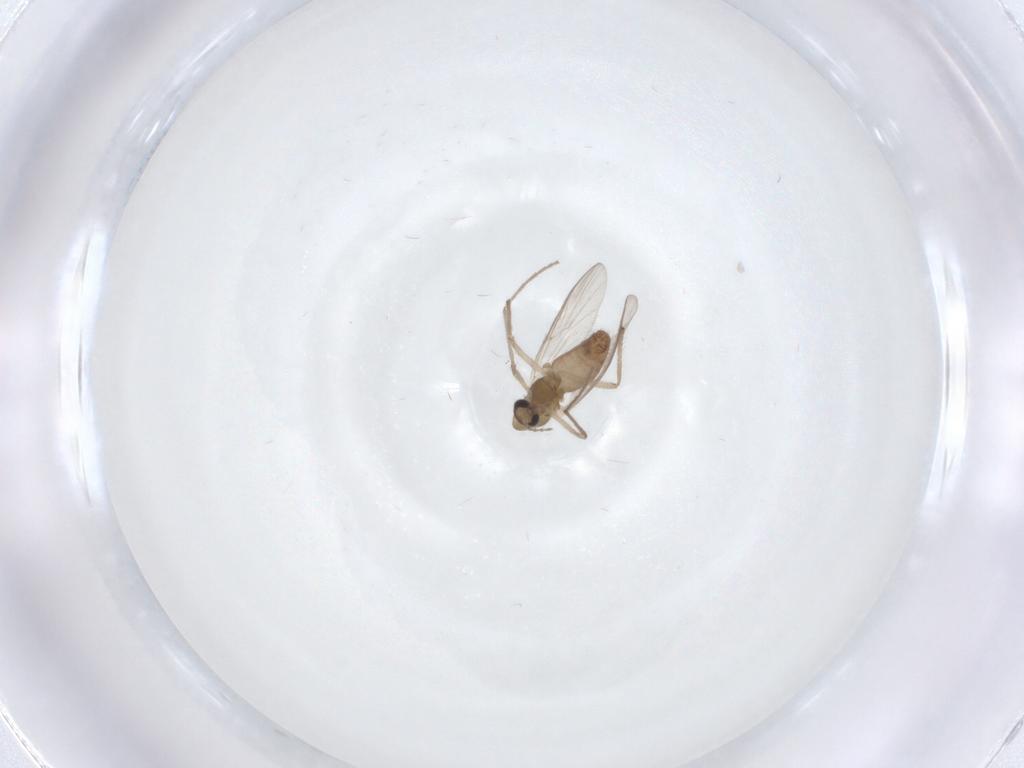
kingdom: Animalia
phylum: Arthropoda
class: Insecta
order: Diptera
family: Chironomidae
